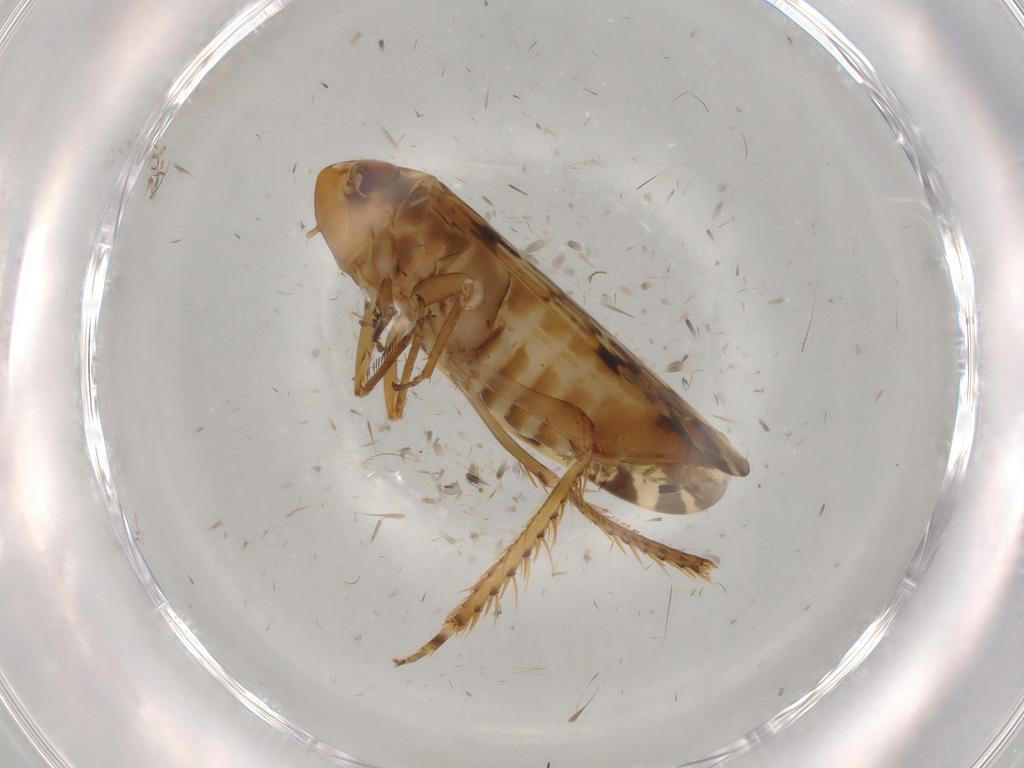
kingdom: Animalia
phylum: Arthropoda
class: Insecta
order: Hemiptera
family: Cicadellidae
